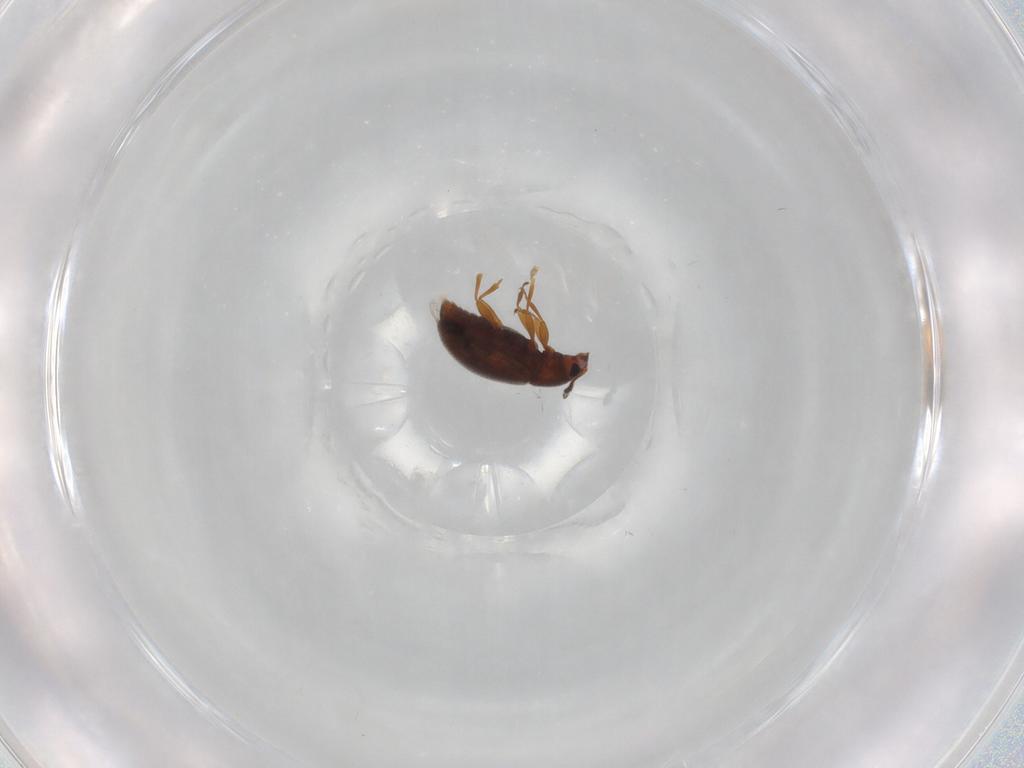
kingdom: Animalia
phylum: Arthropoda
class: Insecta
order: Coleoptera
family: Latridiidae
